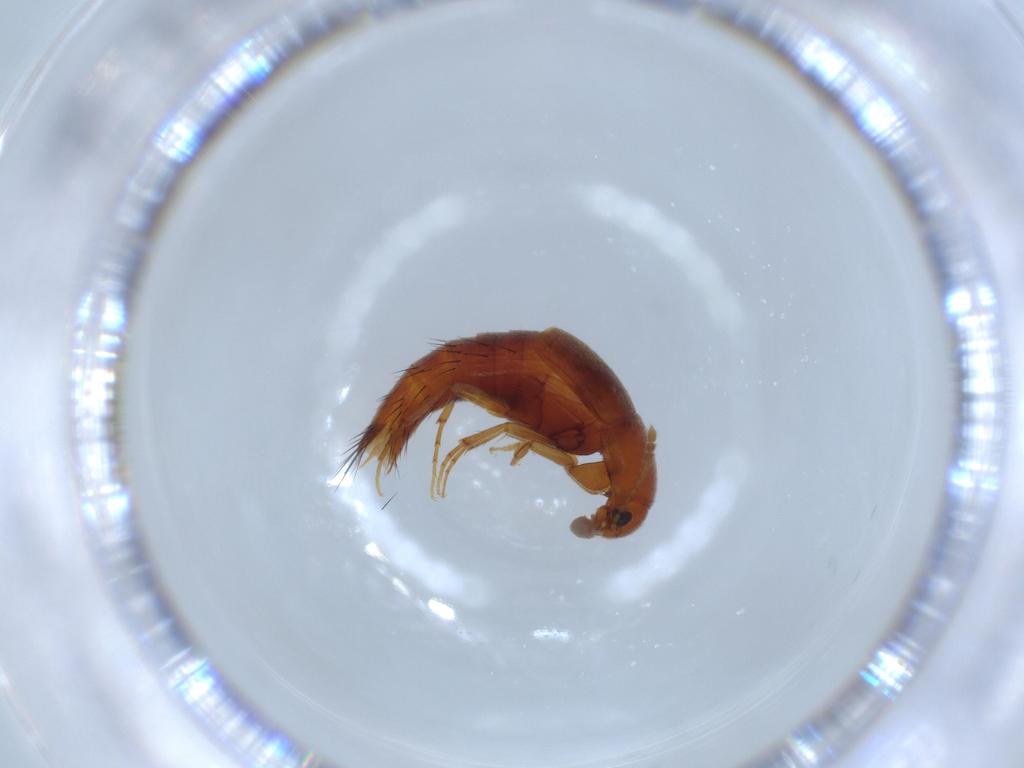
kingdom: Animalia
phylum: Arthropoda
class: Insecta
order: Coleoptera
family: Staphylinidae
